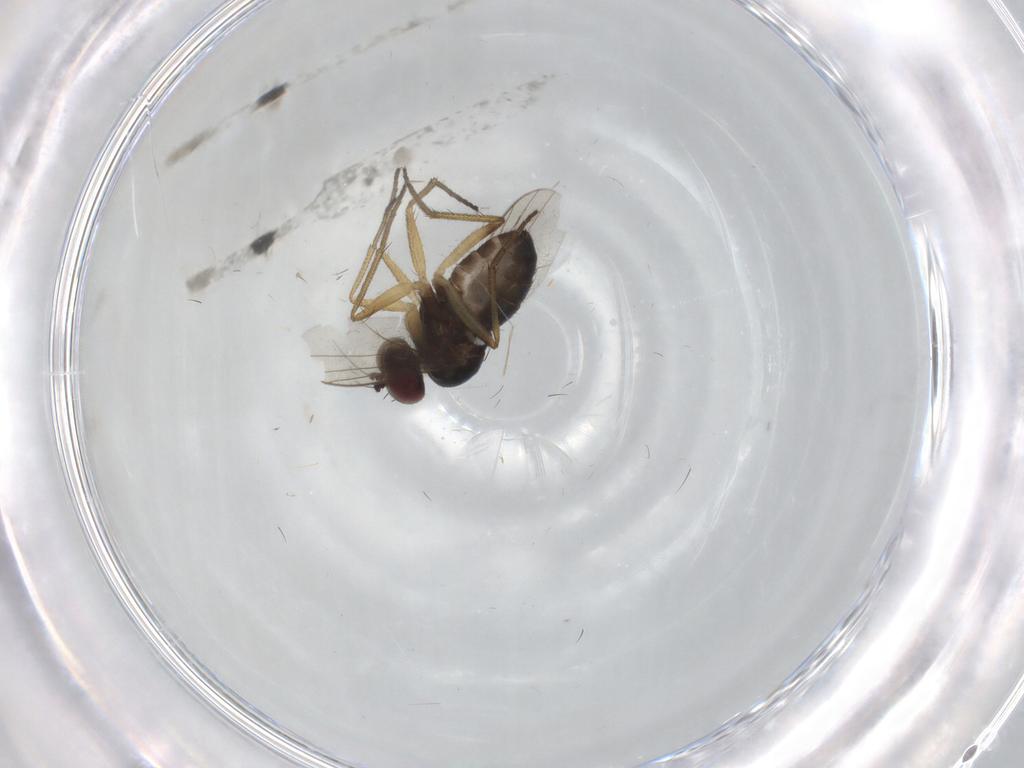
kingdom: Animalia
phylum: Arthropoda
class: Insecta
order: Diptera
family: Dolichopodidae
